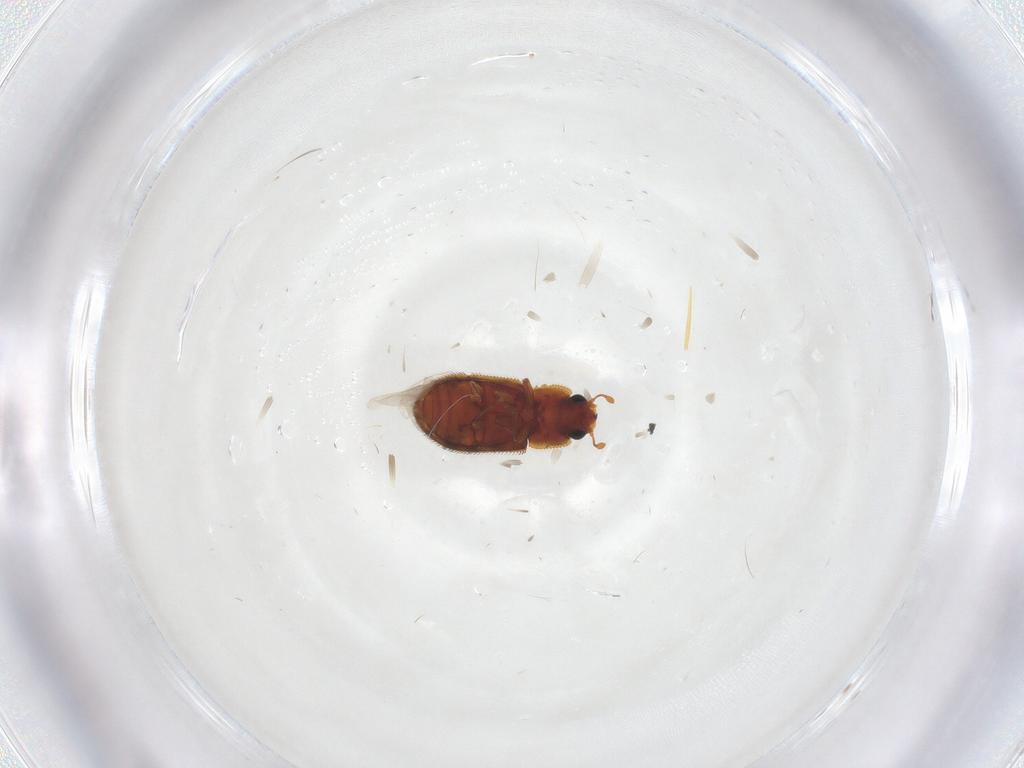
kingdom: Animalia
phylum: Arthropoda
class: Insecta
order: Coleoptera
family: Zopheridae
